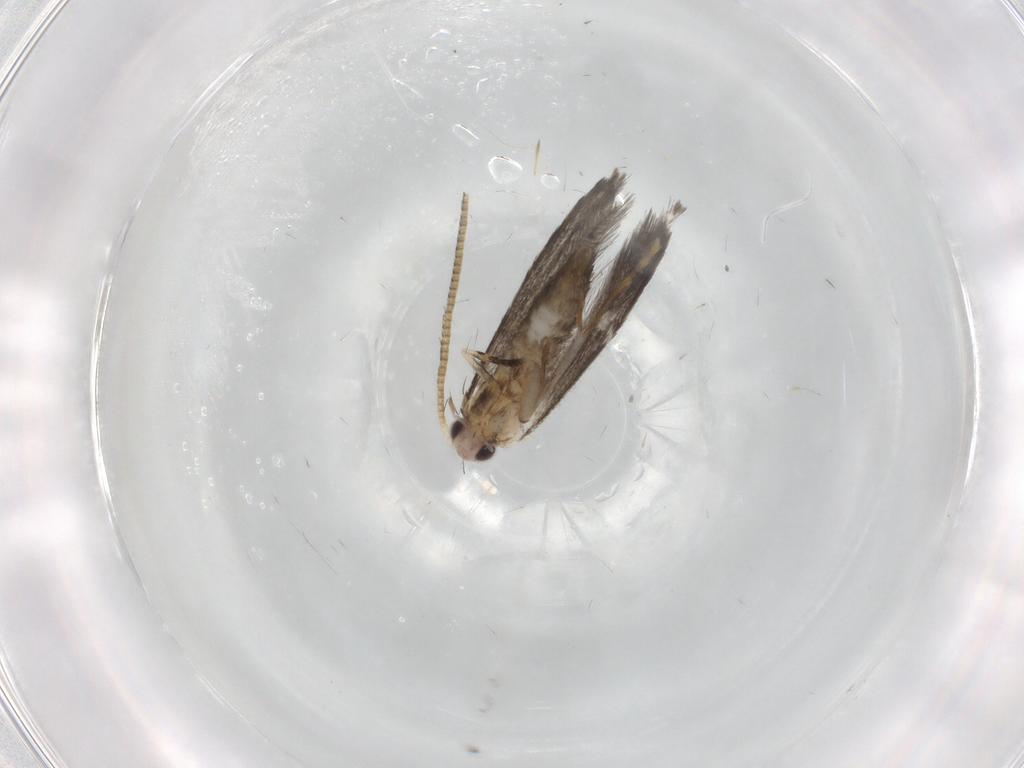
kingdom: Animalia
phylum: Arthropoda
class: Insecta
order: Lepidoptera
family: Tineidae
